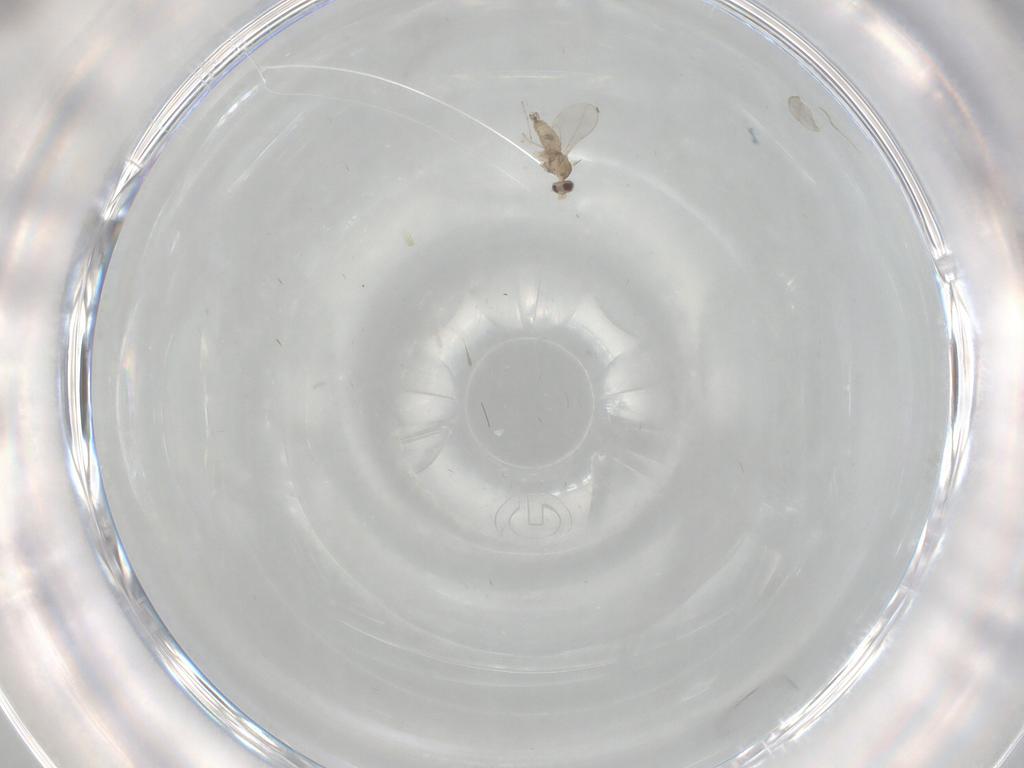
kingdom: Animalia
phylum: Arthropoda
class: Insecta
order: Diptera
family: Cecidomyiidae
